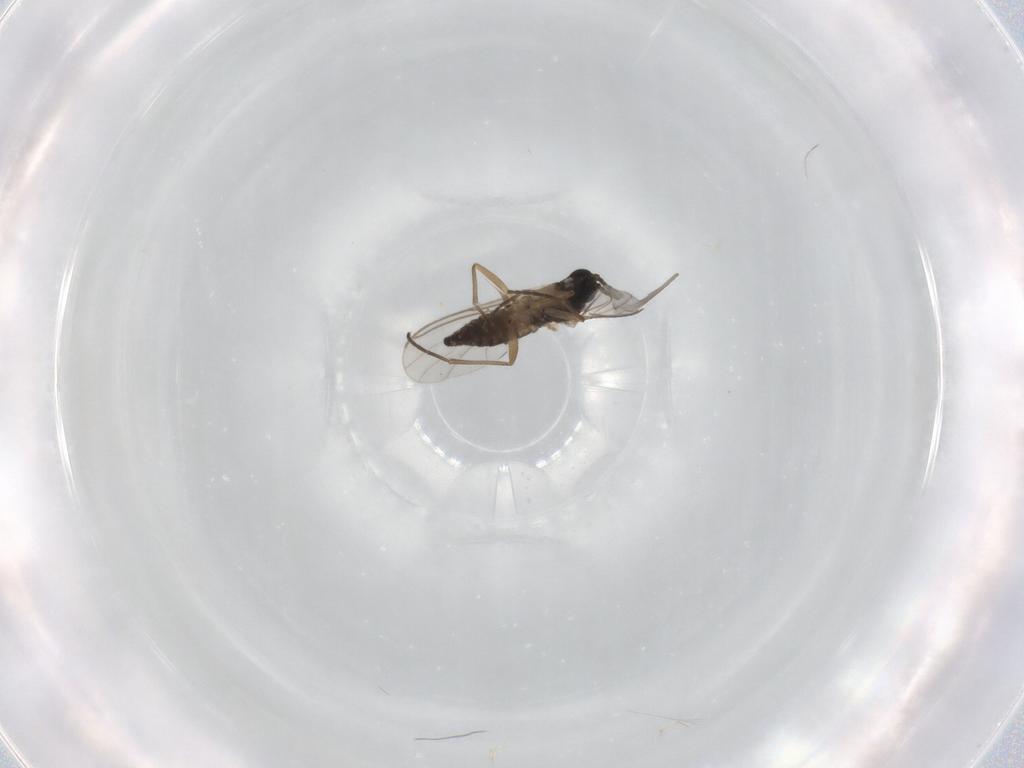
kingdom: Animalia
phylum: Arthropoda
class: Insecta
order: Diptera
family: Sciaridae
